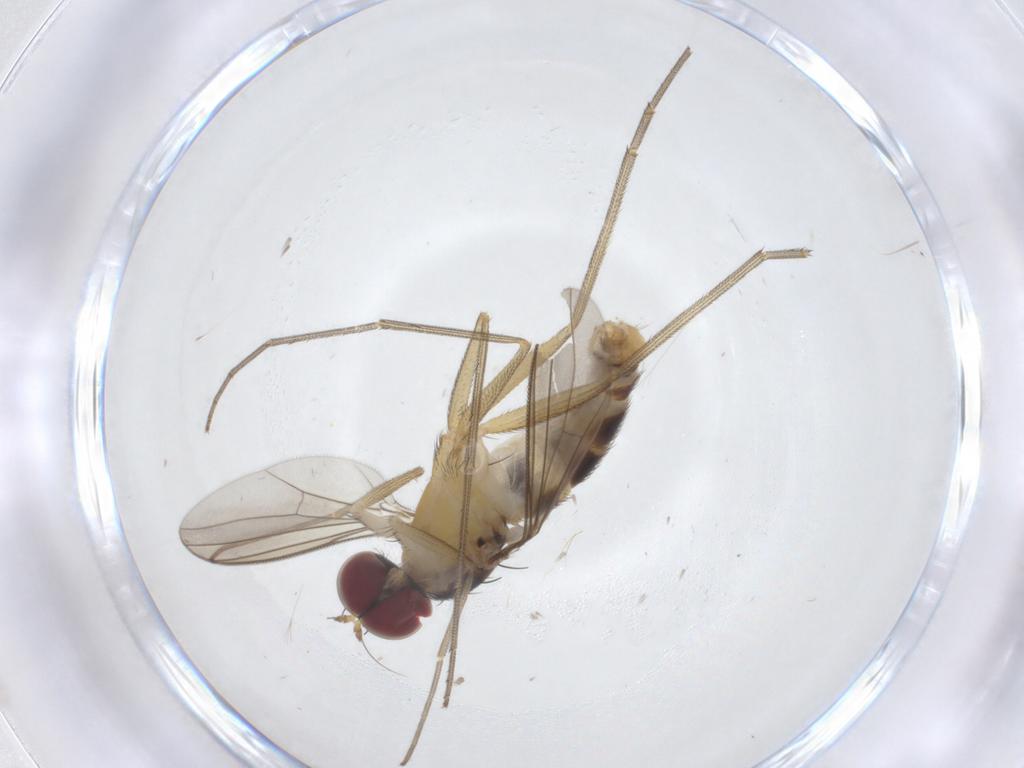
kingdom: Animalia
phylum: Arthropoda
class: Insecta
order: Diptera
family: Dolichopodidae
